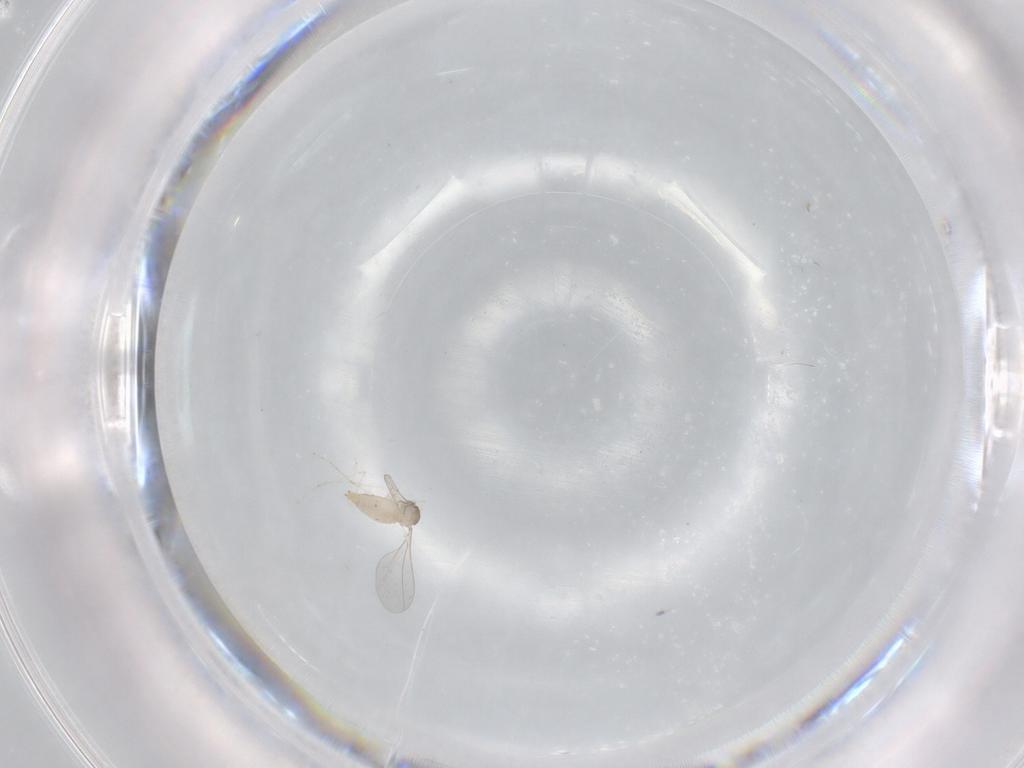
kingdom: Animalia
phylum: Arthropoda
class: Insecta
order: Diptera
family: Cecidomyiidae
